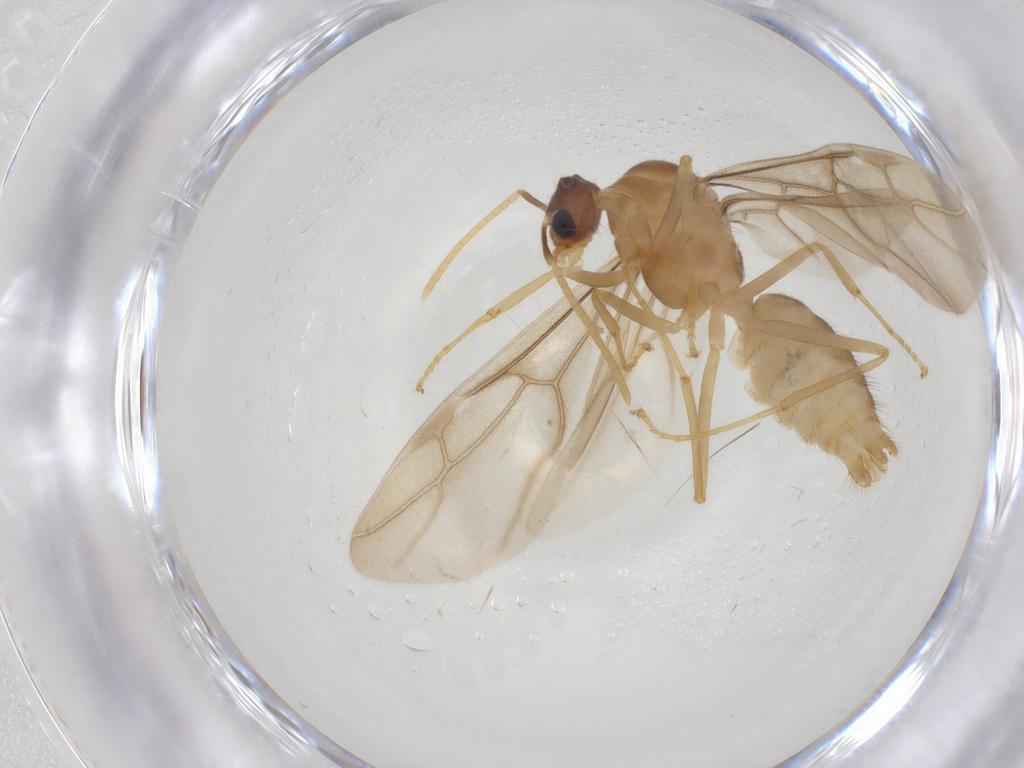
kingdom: Animalia
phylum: Arthropoda
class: Insecta
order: Hymenoptera
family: Formicidae
